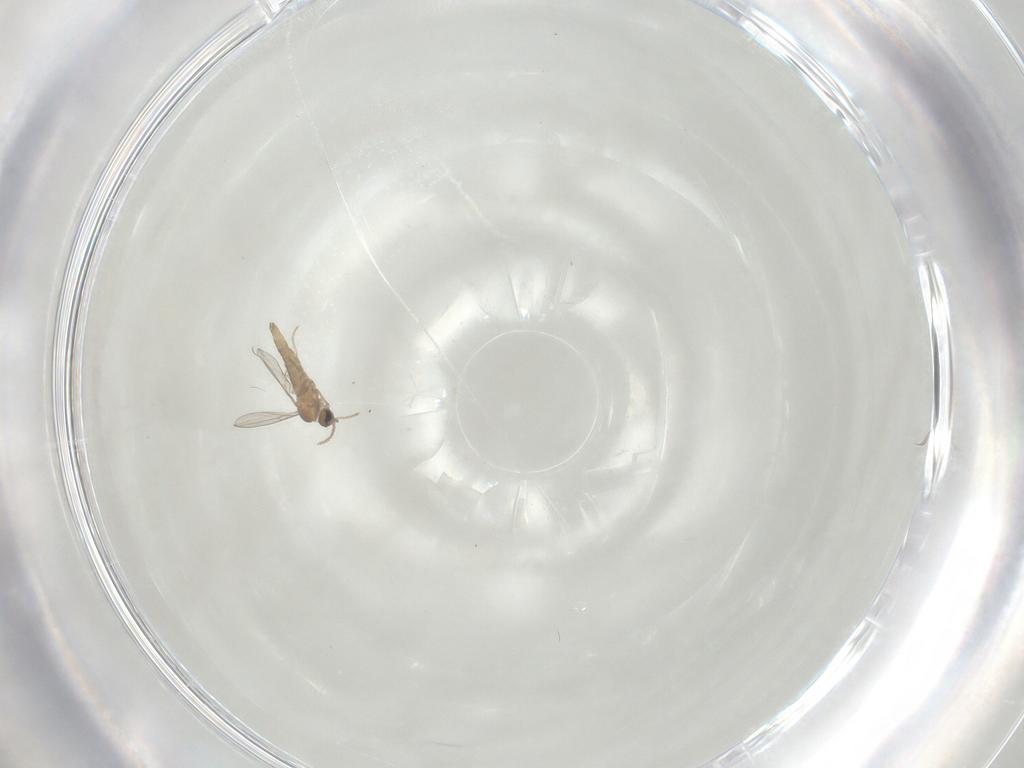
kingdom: Animalia
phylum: Arthropoda
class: Insecta
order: Diptera
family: Cecidomyiidae
